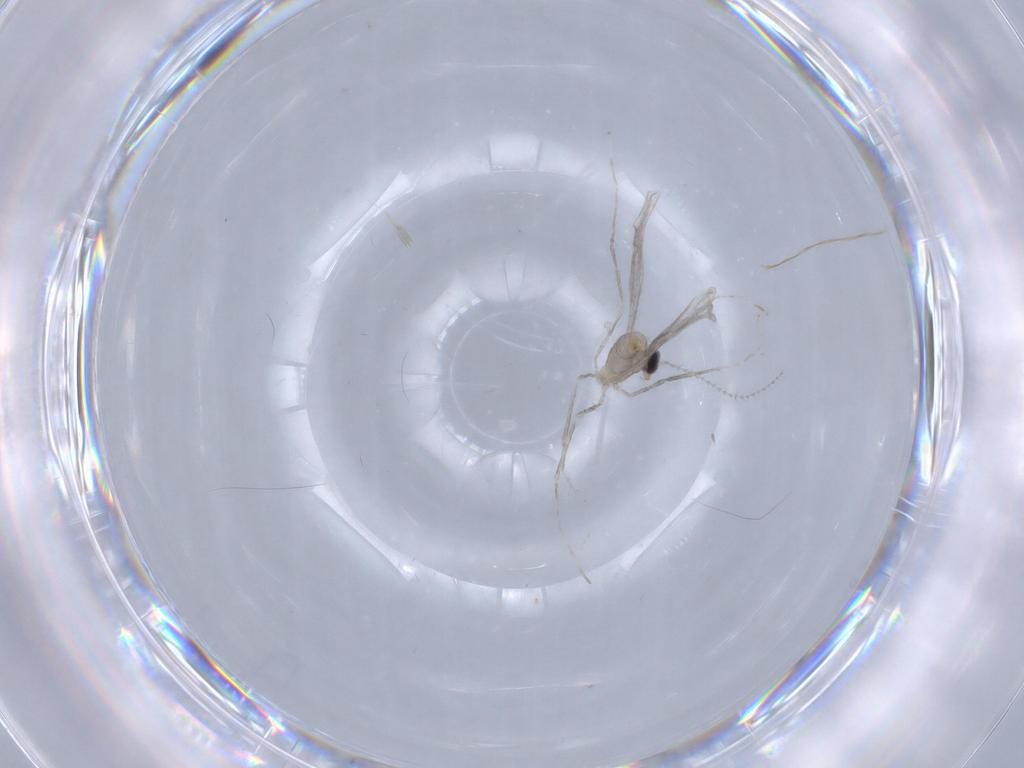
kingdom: Animalia
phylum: Arthropoda
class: Insecta
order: Diptera
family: Cecidomyiidae
